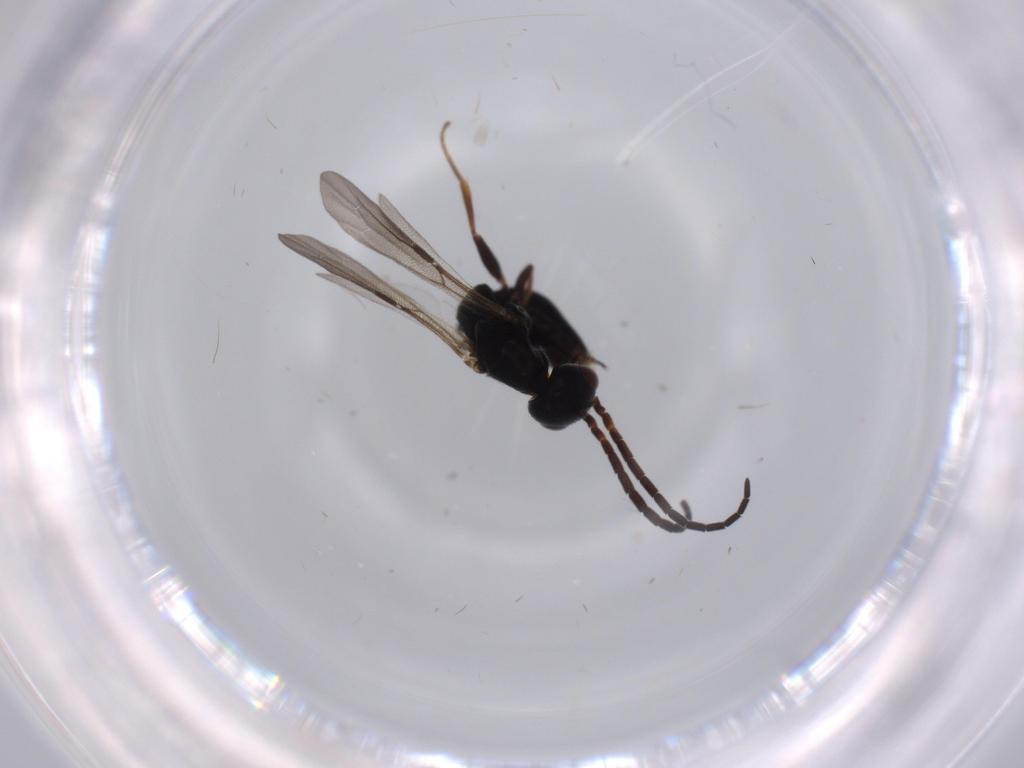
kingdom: Animalia
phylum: Arthropoda
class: Insecta
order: Hymenoptera
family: Bethylidae
